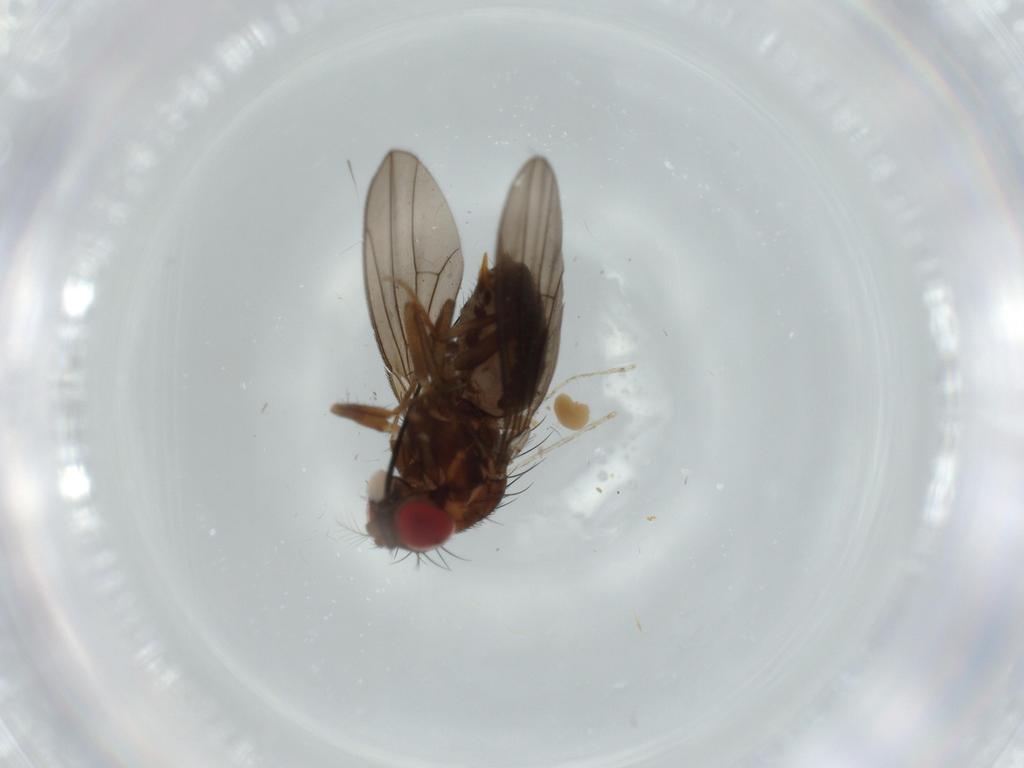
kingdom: Animalia
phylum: Arthropoda
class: Insecta
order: Diptera
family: Drosophilidae
